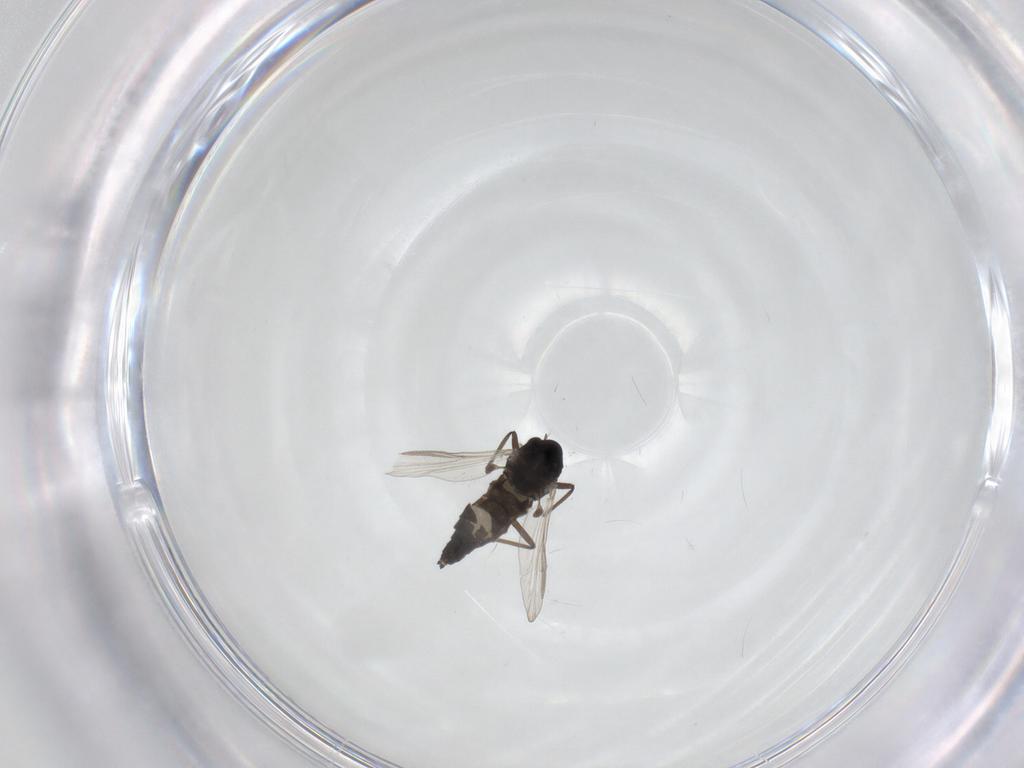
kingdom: Animalia
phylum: Arthropoda
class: Insecta
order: Diptera
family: Chironomidae
